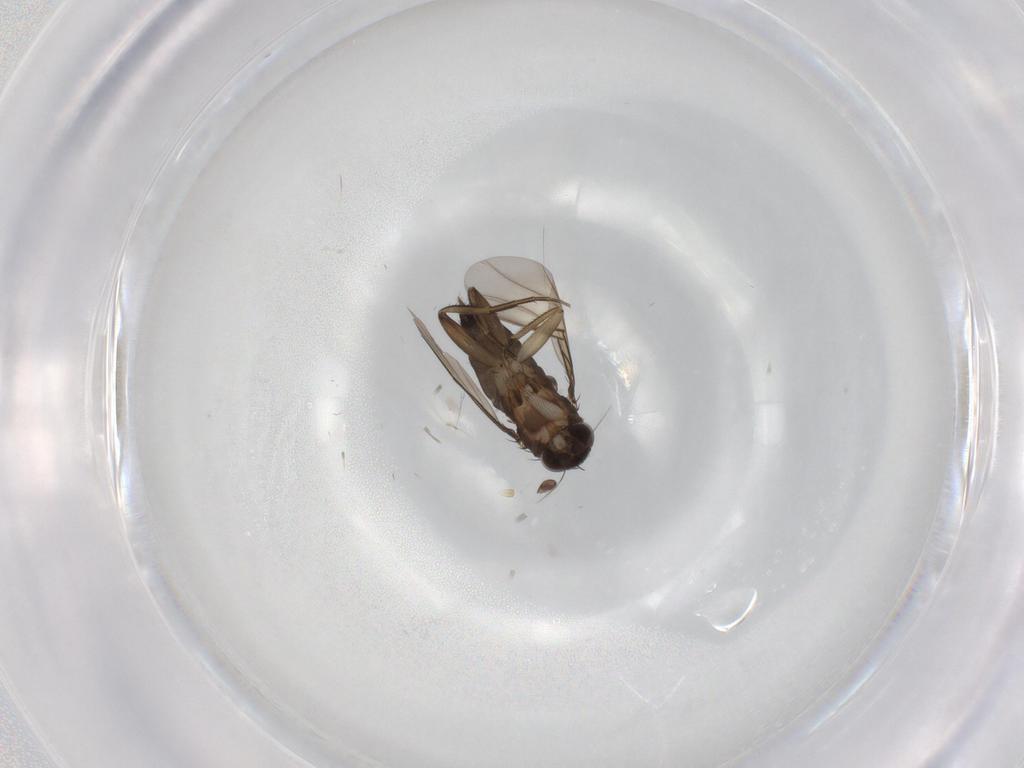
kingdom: Animalia
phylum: Arthropoda
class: Insecta
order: Diptera
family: Phoridae
